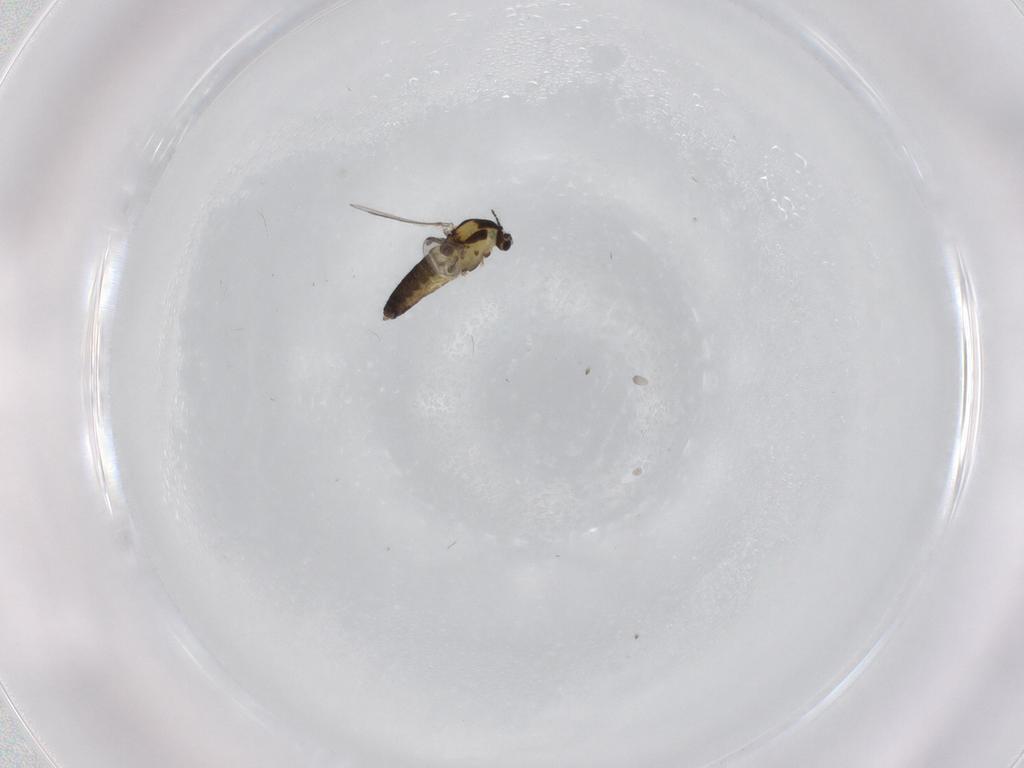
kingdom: Animalia
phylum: Arthropoda
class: Insecta
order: Diptera
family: Chironomidae
